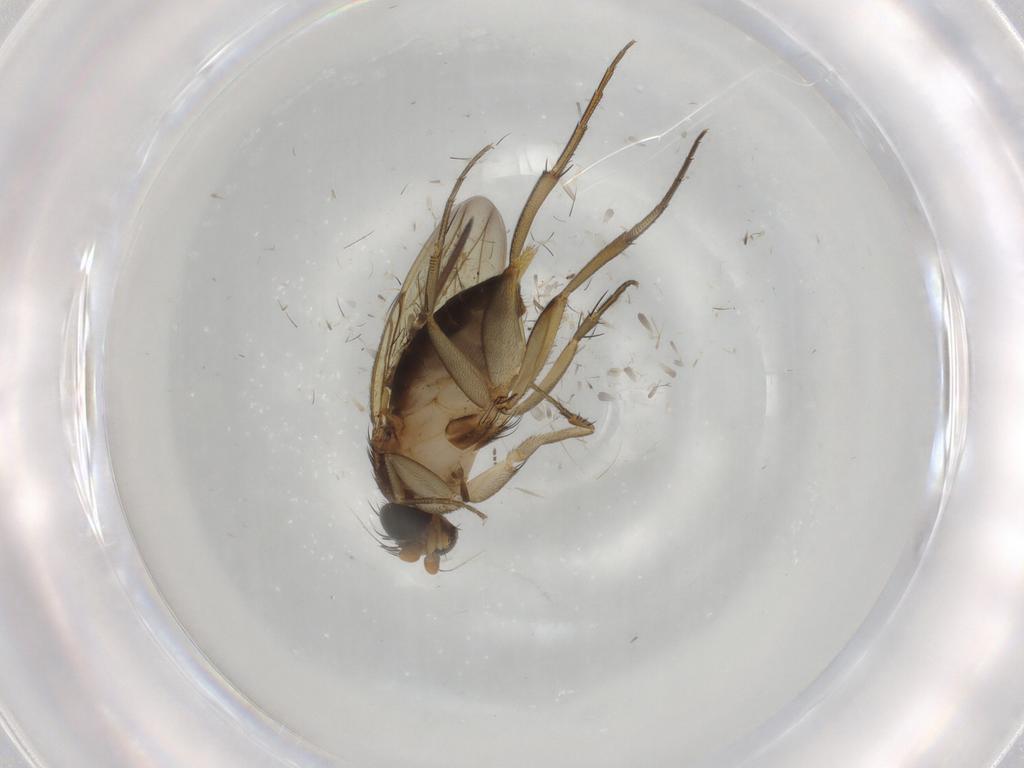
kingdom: Animalia
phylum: Arthropoda
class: Insecta
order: Diptera
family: Phoridae
